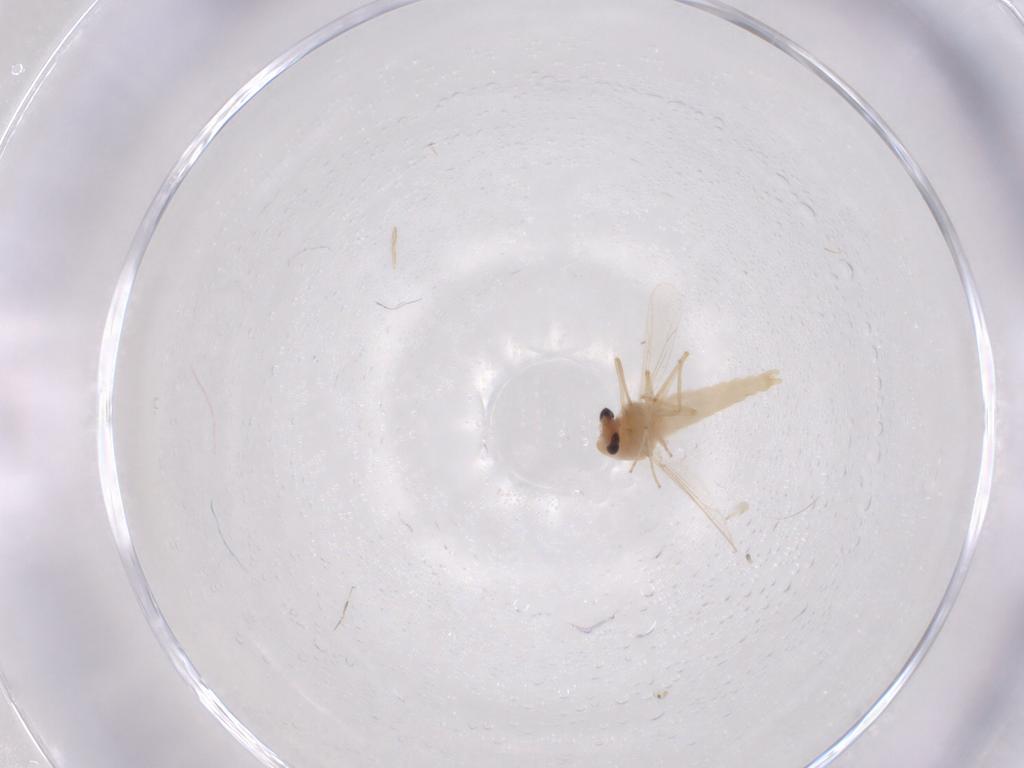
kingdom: Animalia
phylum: Arthropoda
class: Insecta
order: Diptera
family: Chironomidae
